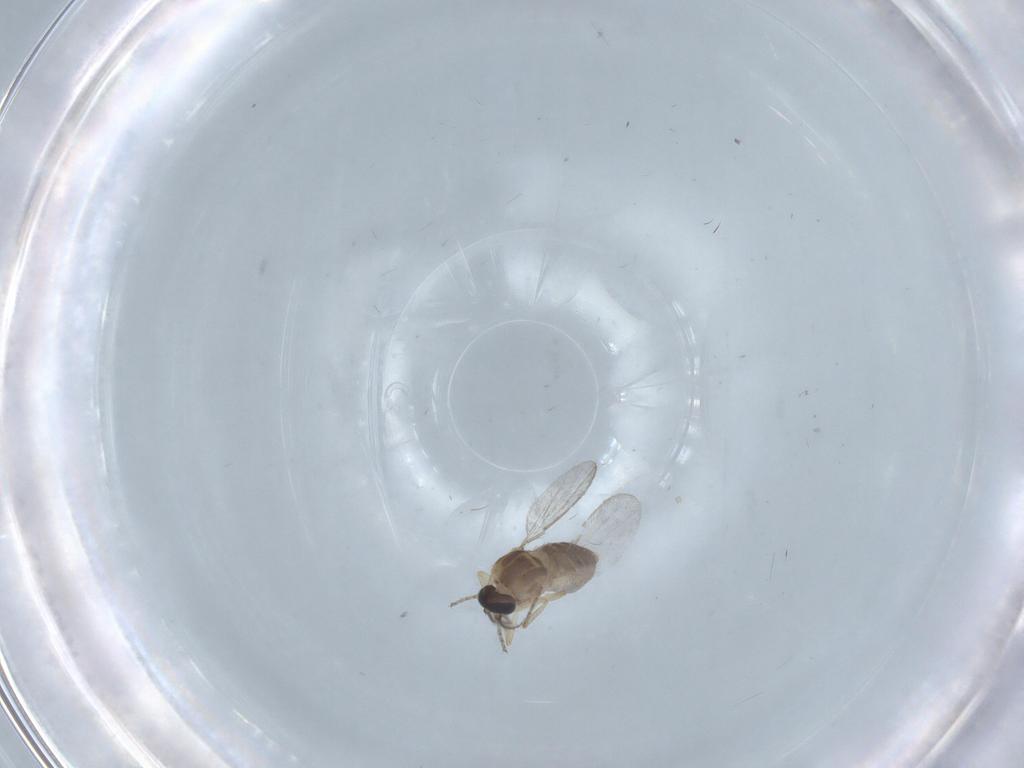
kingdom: Animalia
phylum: Arthropoda
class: Insecta
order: Diptera
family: Ceratopogonidae
